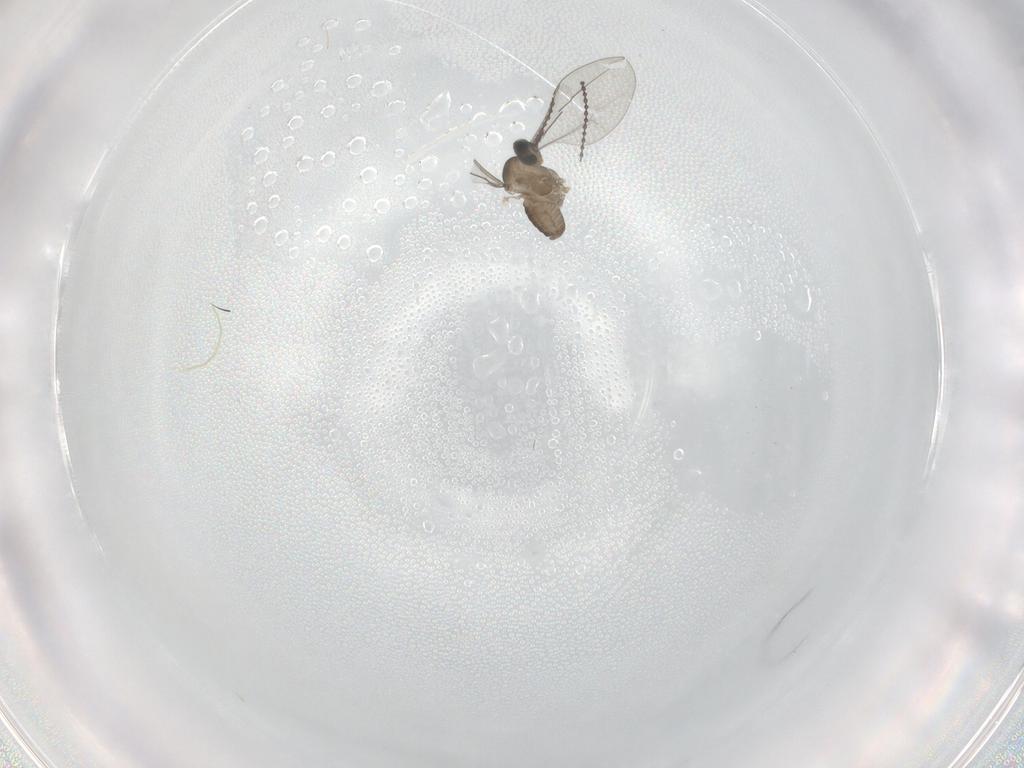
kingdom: Animalia
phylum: Arthropoda
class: Insecta
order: Diptera
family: Cecidomyiidae
